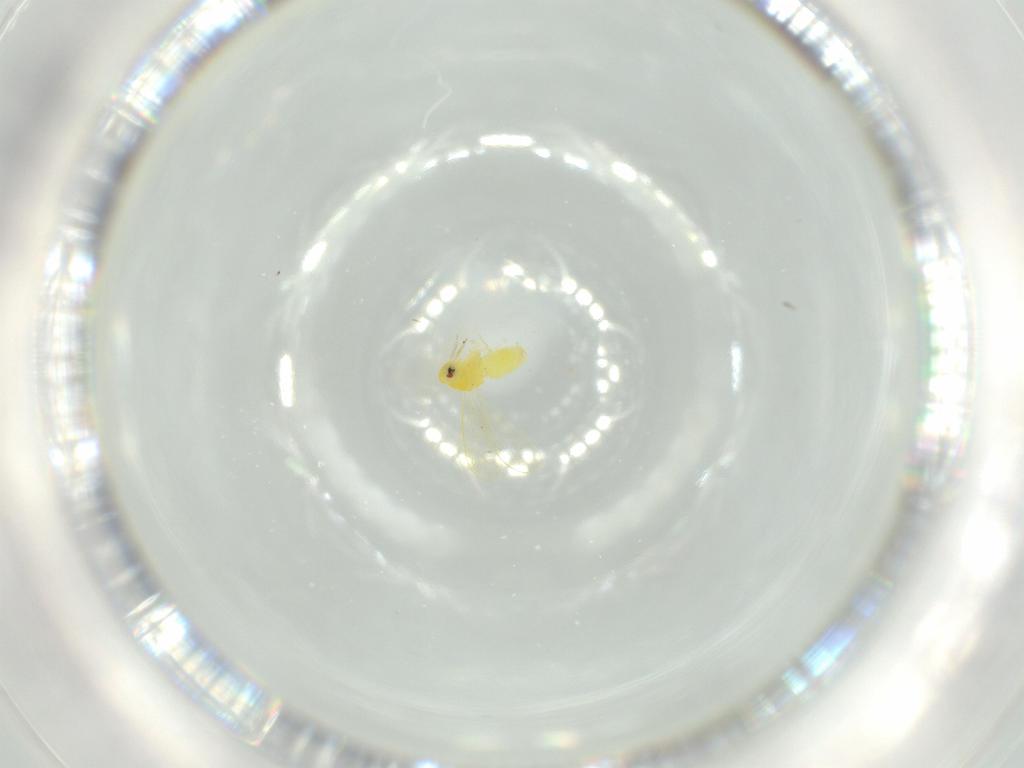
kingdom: Animalia
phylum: Arthropoda
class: Insecta
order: Hemiptera
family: Aleyrodidae
